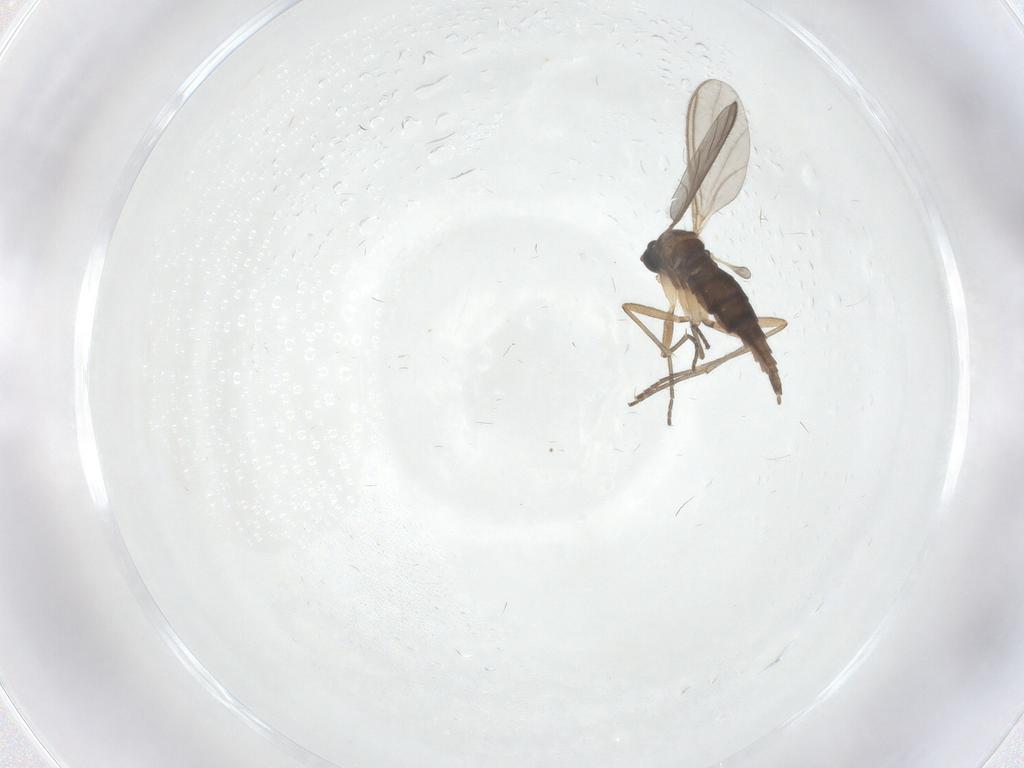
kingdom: Animalia
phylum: Arthropoda
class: Insecta
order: Diptera
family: Sciaridae
